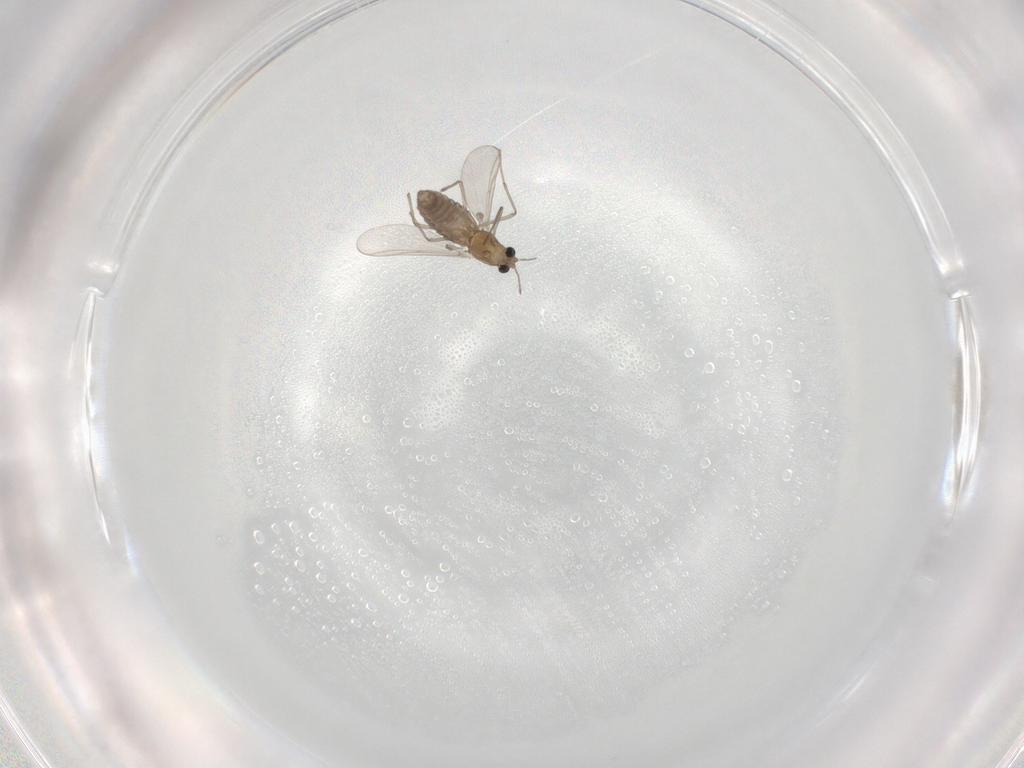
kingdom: Animalia
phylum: Arthropoda
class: Insecta
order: Diptera
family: Chironomidae
